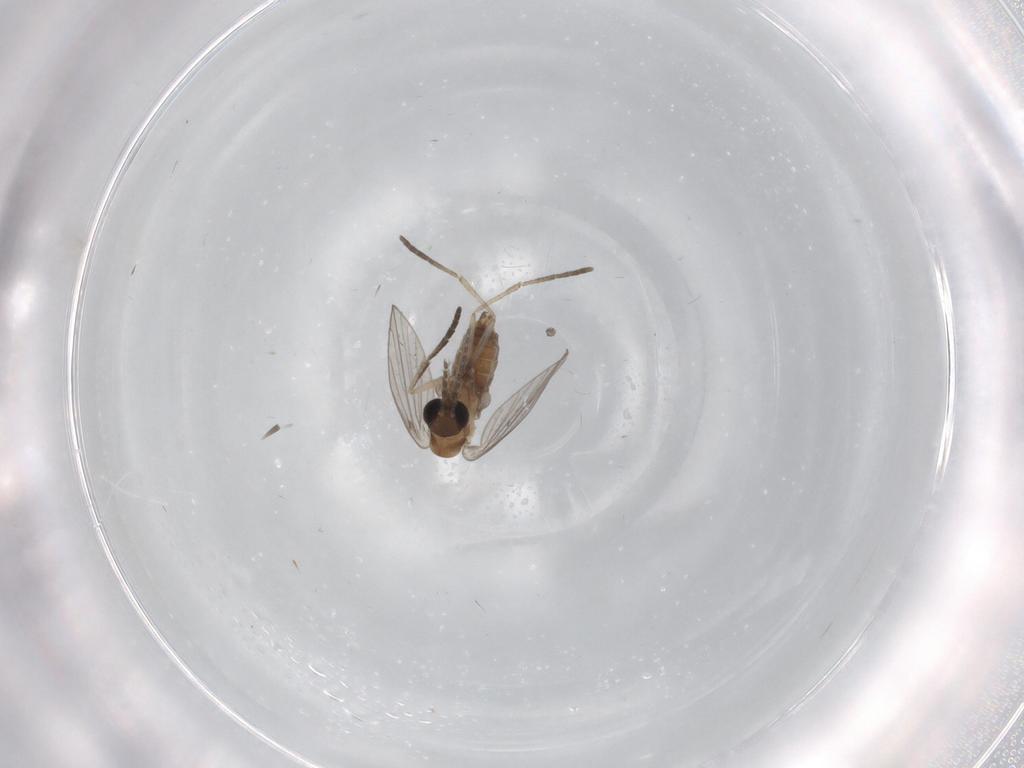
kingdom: Animalia
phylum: Arthropoda
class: Insecta
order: Diptera
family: Psychodidae
